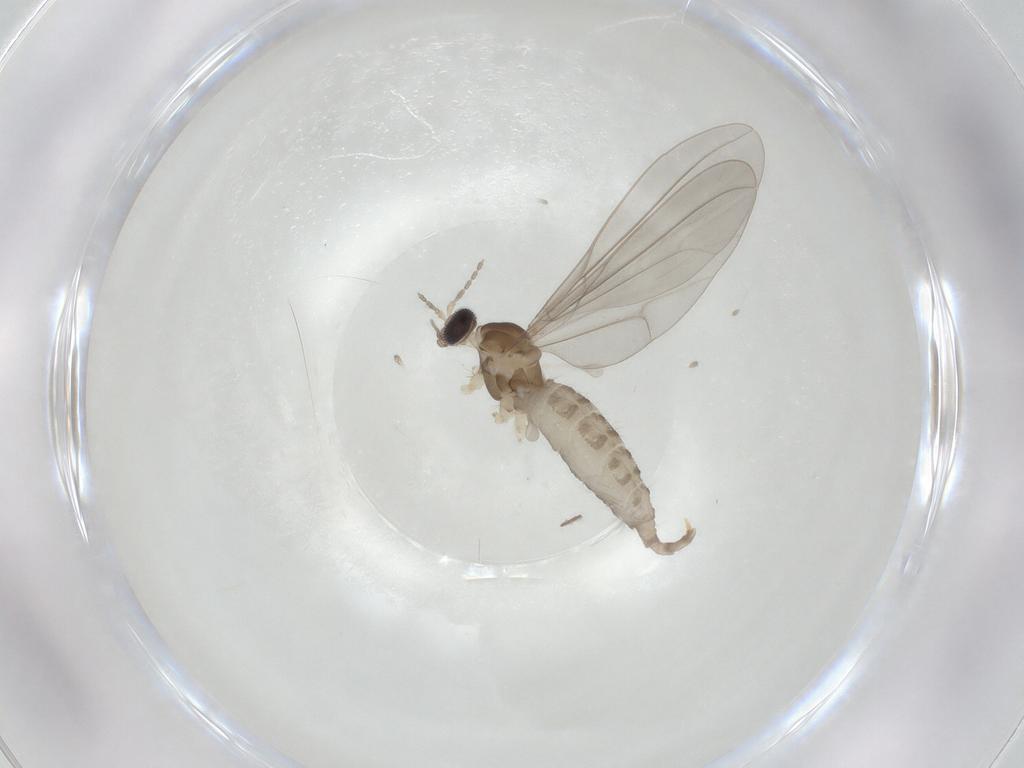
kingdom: Animalia
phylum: Arthropoda
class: Insecta
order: Diptera
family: Cecidomyiidae
